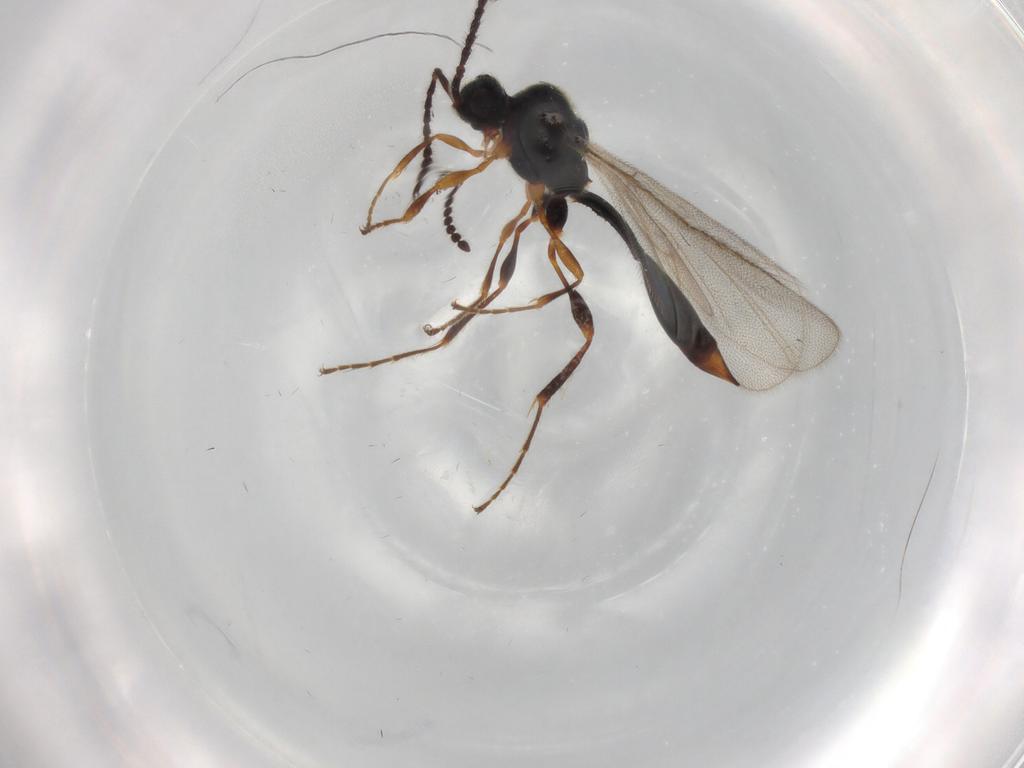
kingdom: Animalia
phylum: Arthropoda
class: Insecta
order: Hymenoptera
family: Diapriidae
